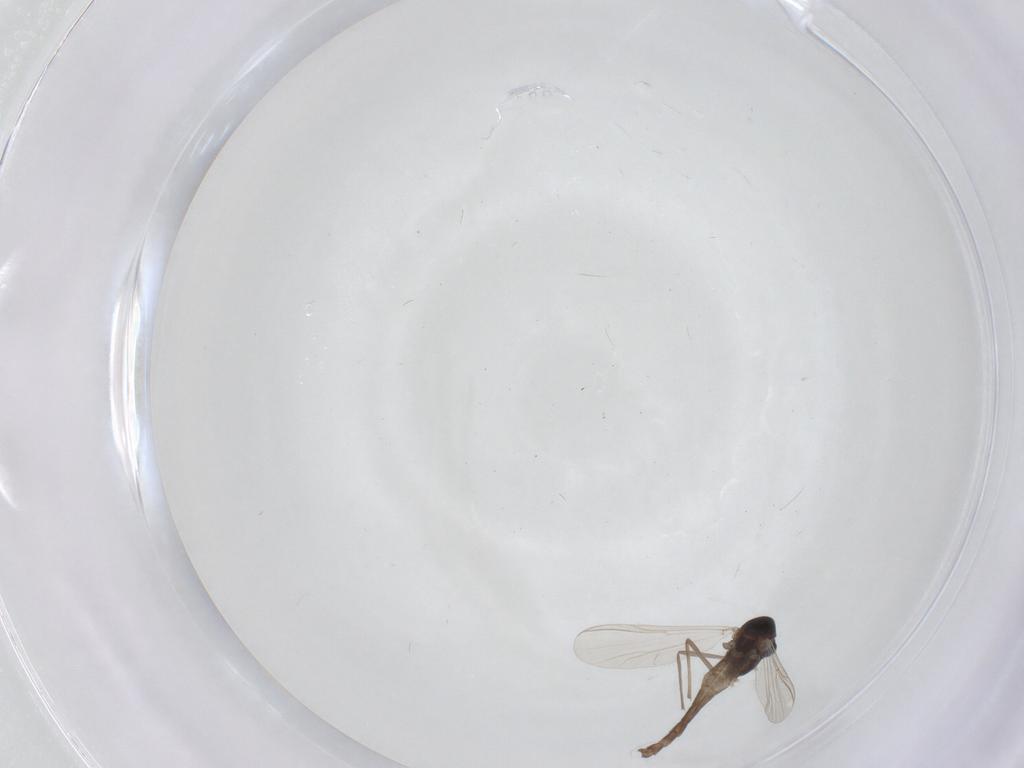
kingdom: Animalia
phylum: Arthropoda
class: Insecta
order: Diptera
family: Chironomidae
